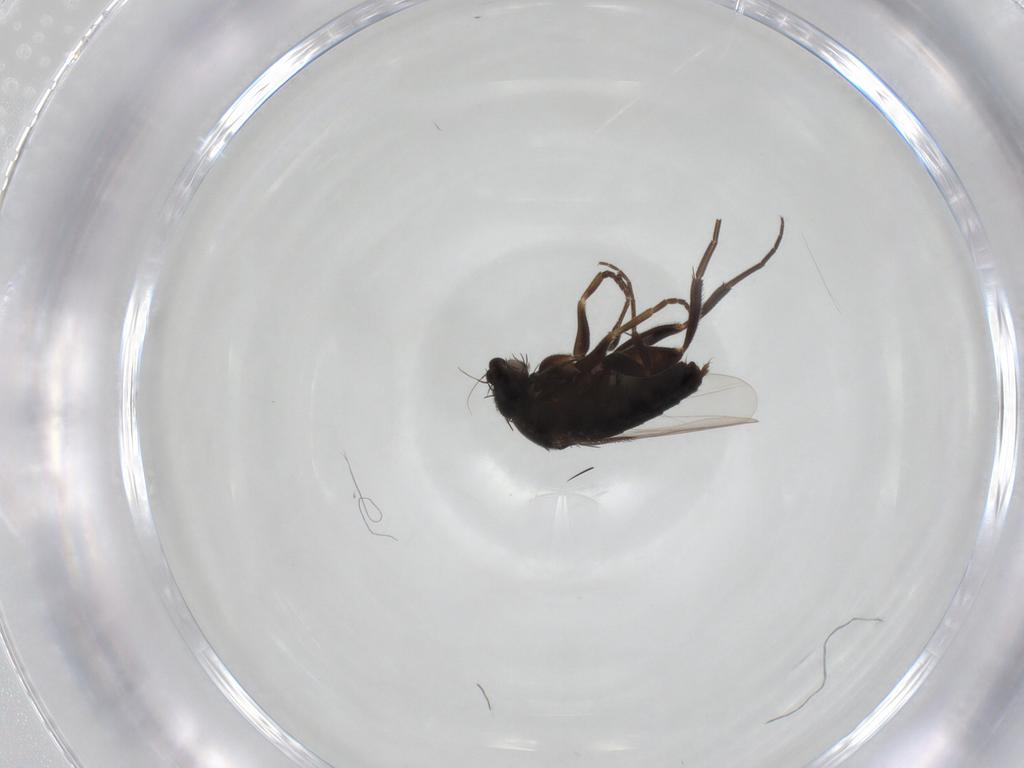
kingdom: Animalia
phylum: Arthropoda
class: Insecta
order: Diptera
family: Phoridae
